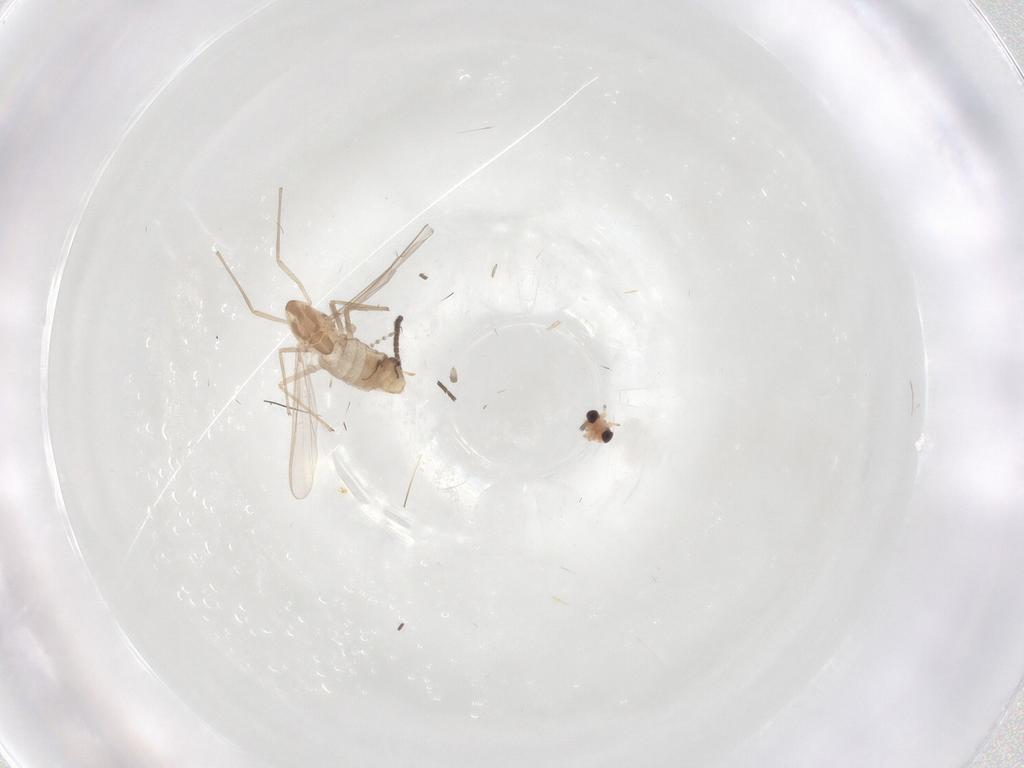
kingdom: Animalia
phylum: Arthropoda
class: Insecta
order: Diptera
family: Chironomidae
